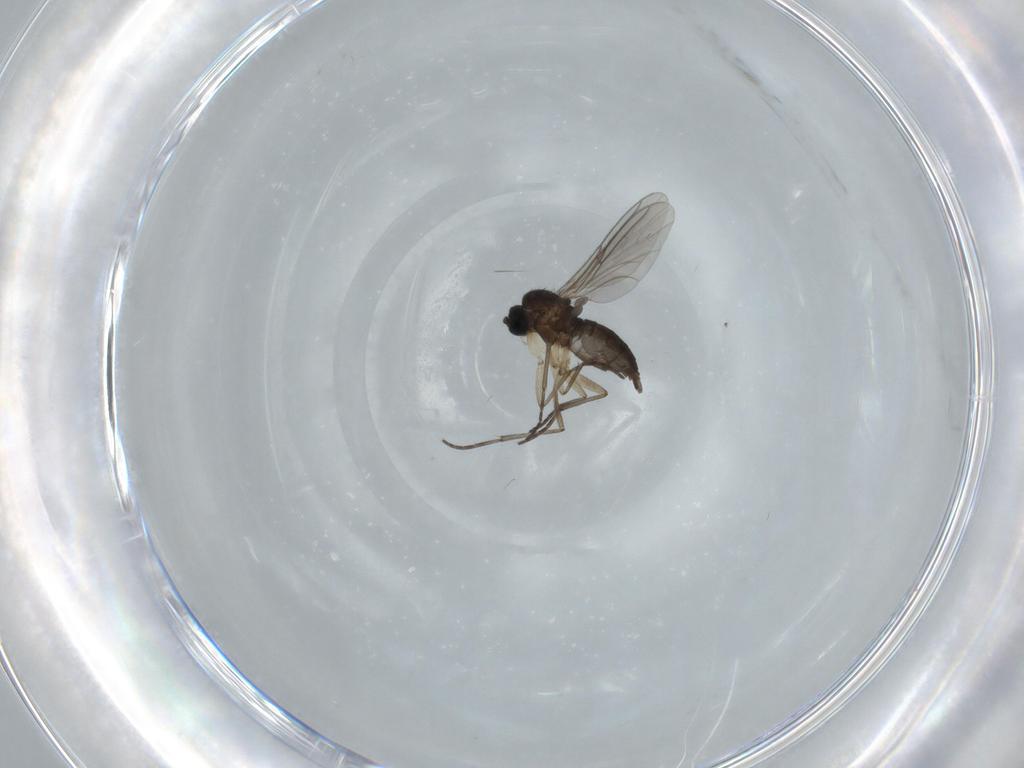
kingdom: Animalia
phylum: Arthropoda
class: Insecta
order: Diptera
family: Sciaridae
